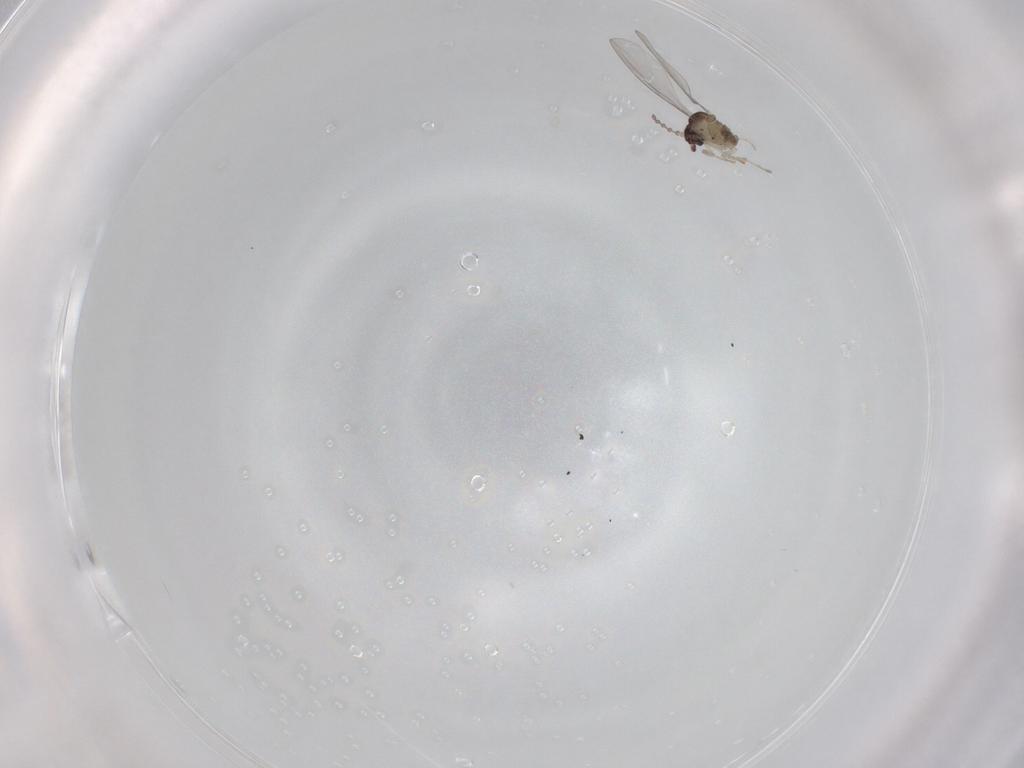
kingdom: Animalia
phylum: Arthropoda
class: Insecta
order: Diptera
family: Cecidomyiidae
